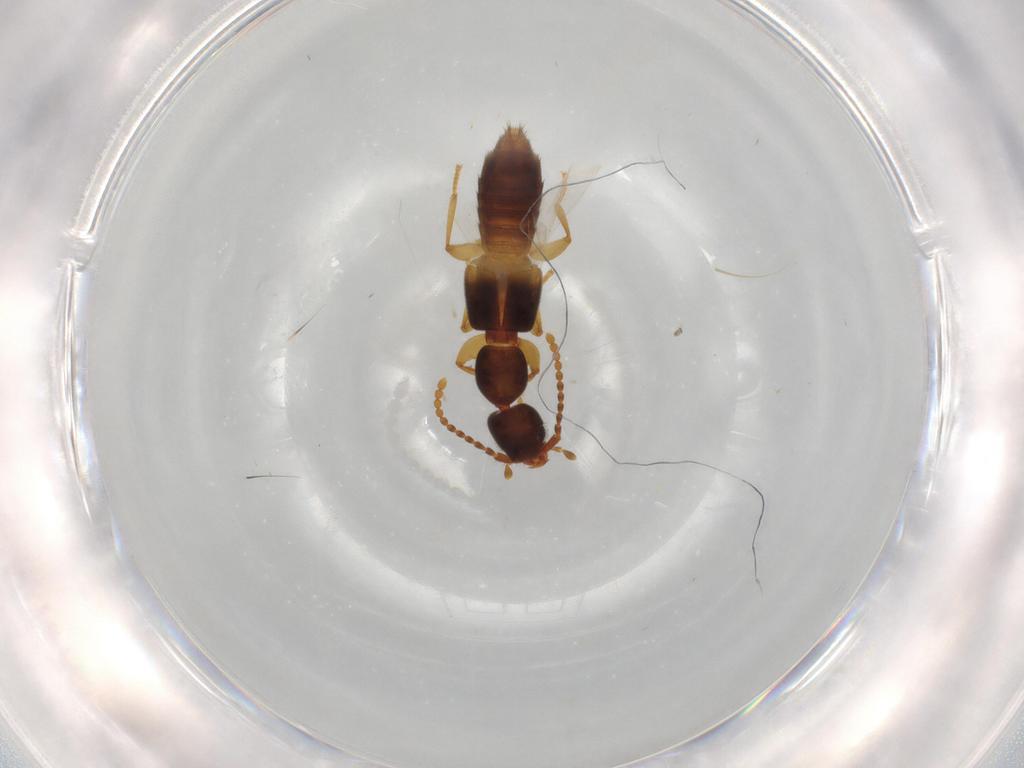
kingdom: Animalia
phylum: Arthropoda
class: Insecta
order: Coleoptera
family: Staphylinidae
